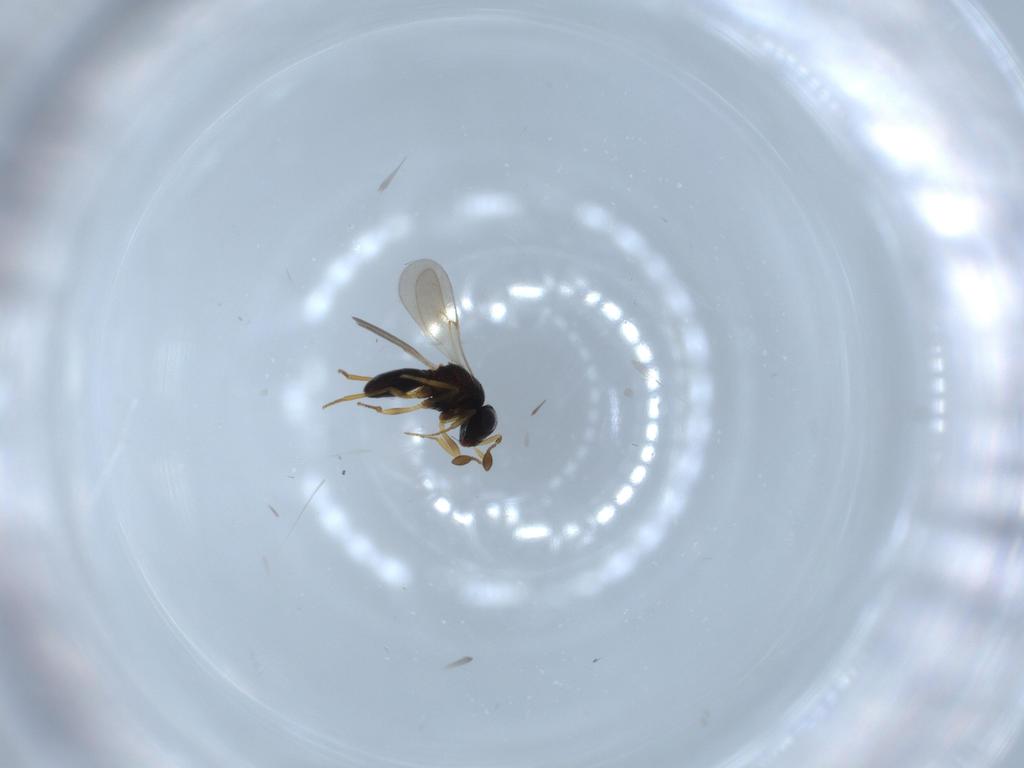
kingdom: Animalia
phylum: Arthropoda
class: Insecta
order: Hymenoptera
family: Scelionidae
